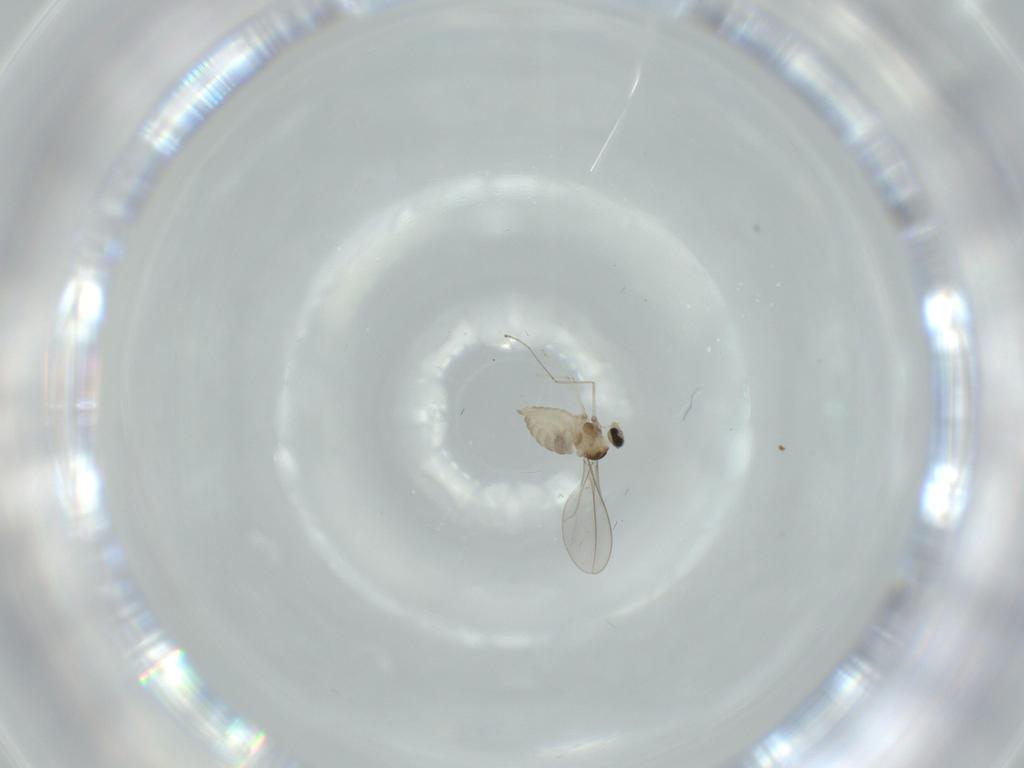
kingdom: Animalia
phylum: Arthropoda
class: Insecta
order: Diptera
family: Cecidomyiidae
